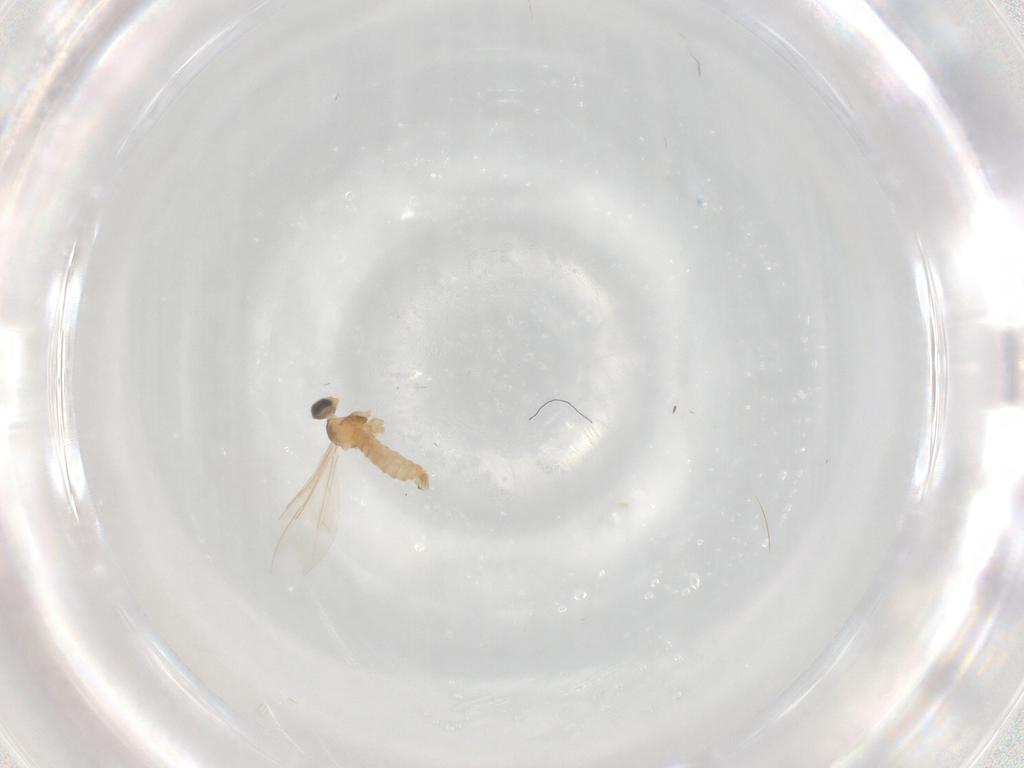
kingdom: Animalia
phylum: Arthropoda
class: Insecta
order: Diptera
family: Cecidomyiidae
